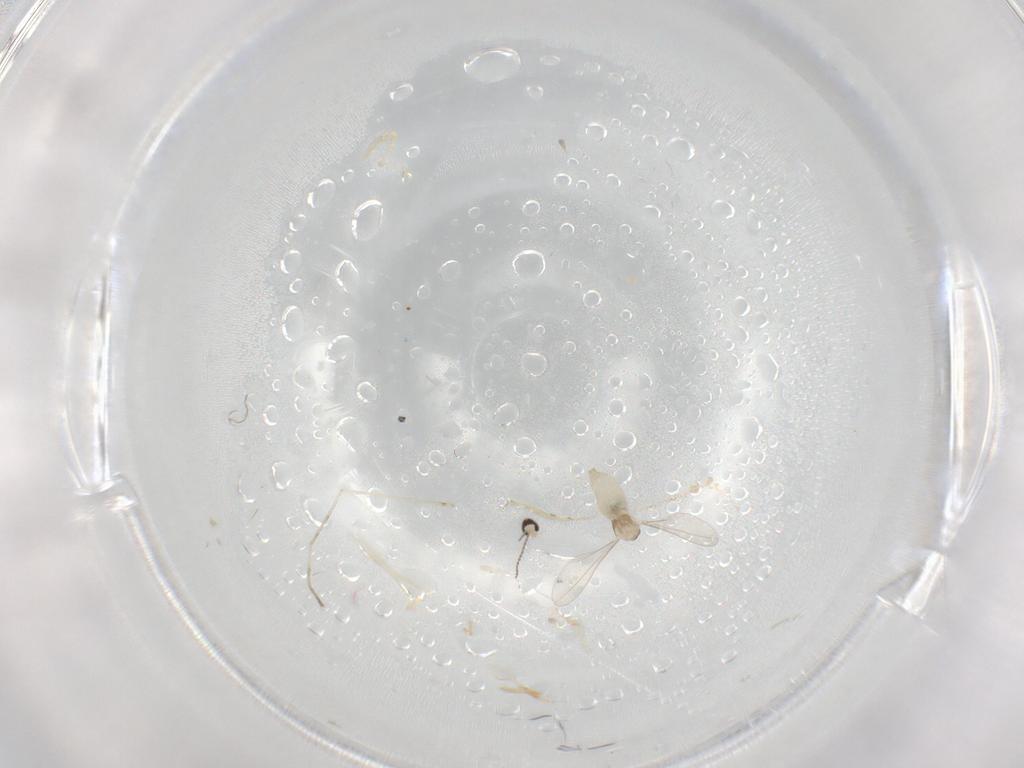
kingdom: Animalia
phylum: Arthropoda
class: Insecta
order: Diptera
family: Cecidomyiidae
